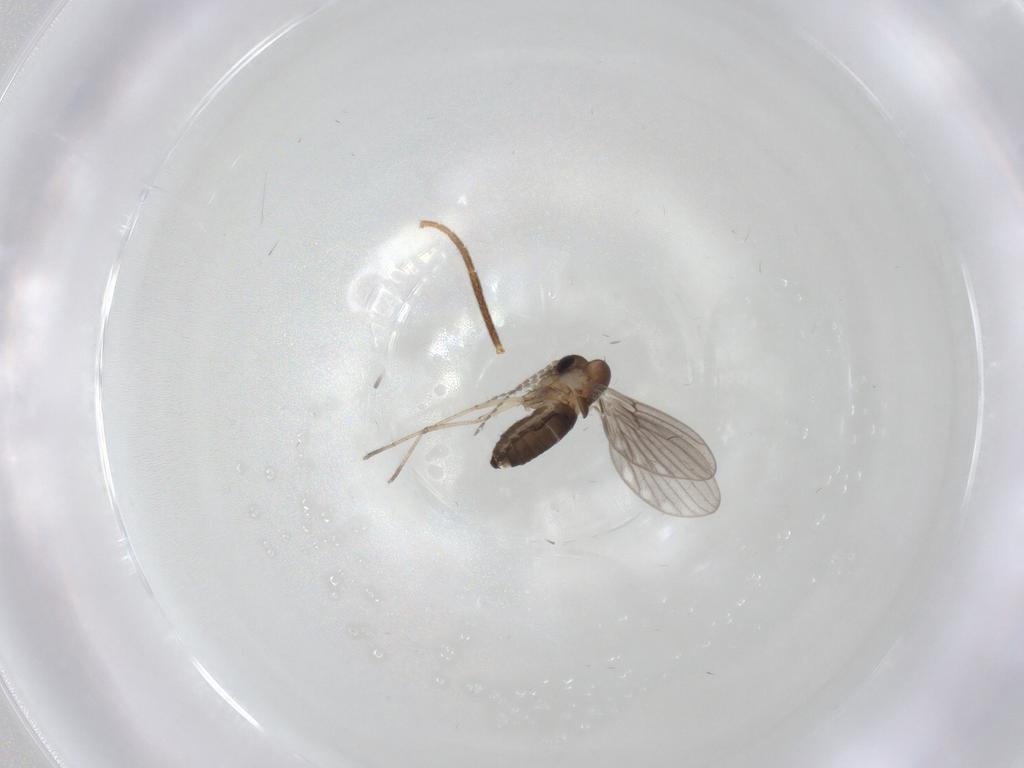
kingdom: Animalia
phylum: Arthropoda
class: Insecta
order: Diptera
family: Psychodidae
